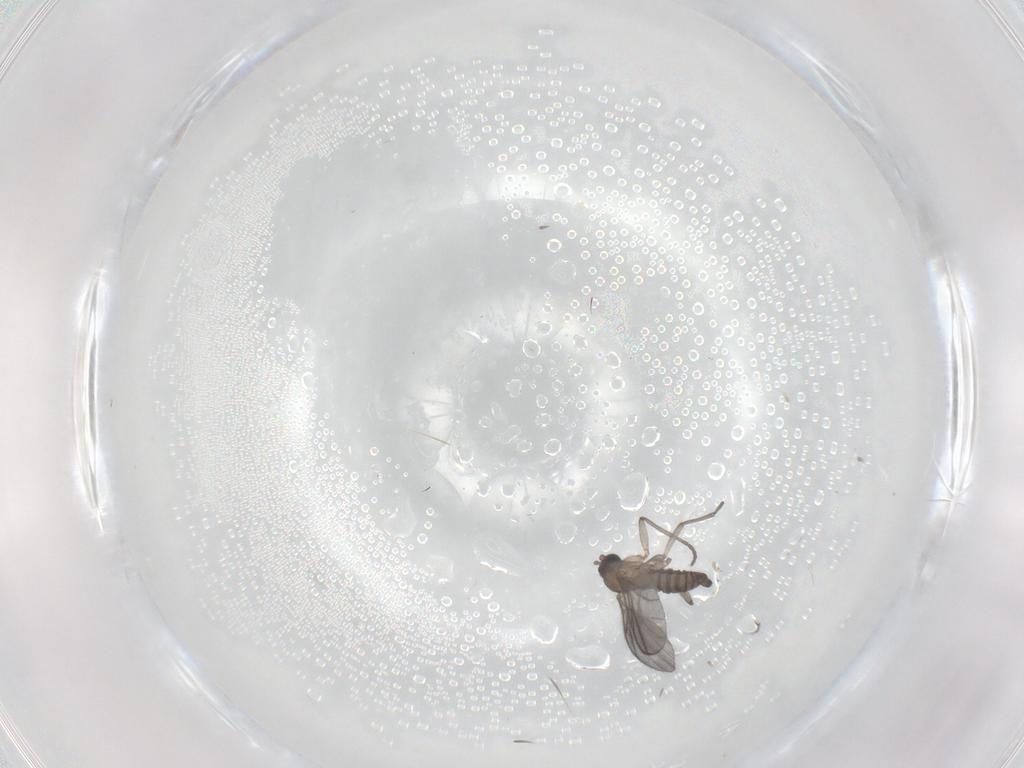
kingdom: Animalia
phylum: Arthropoda
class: Insecta
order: Diptera
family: Sciaridae
